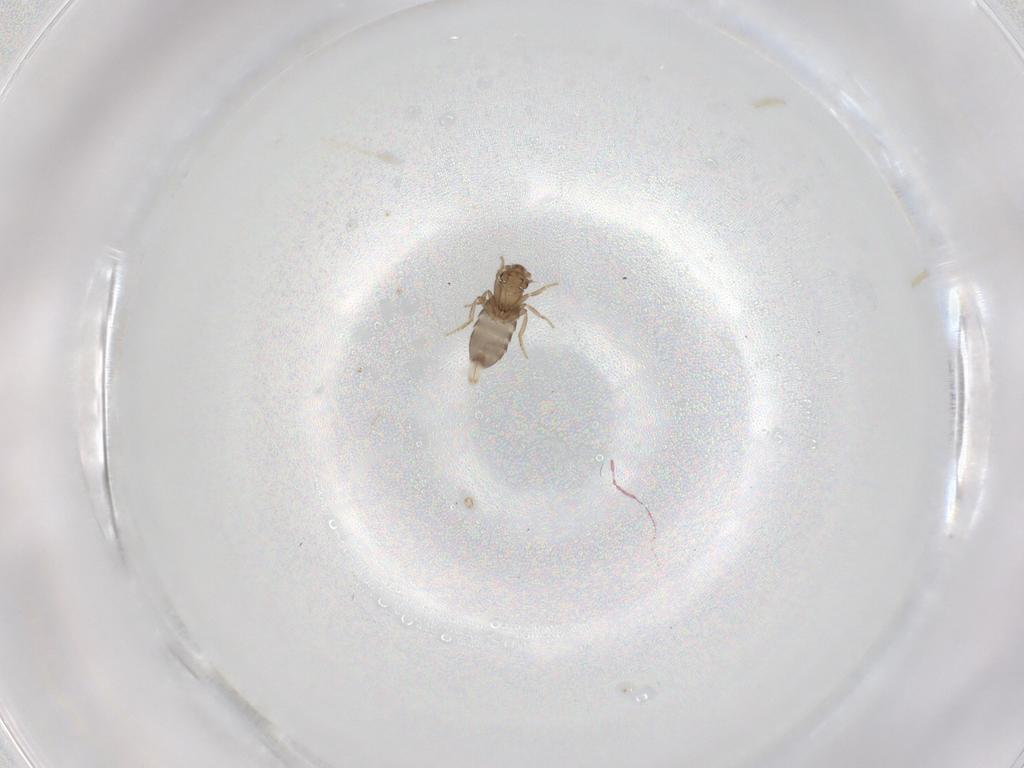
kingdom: Animalia
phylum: Arthropoda
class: Insecta
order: Diptera
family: Ceratopogonidae
